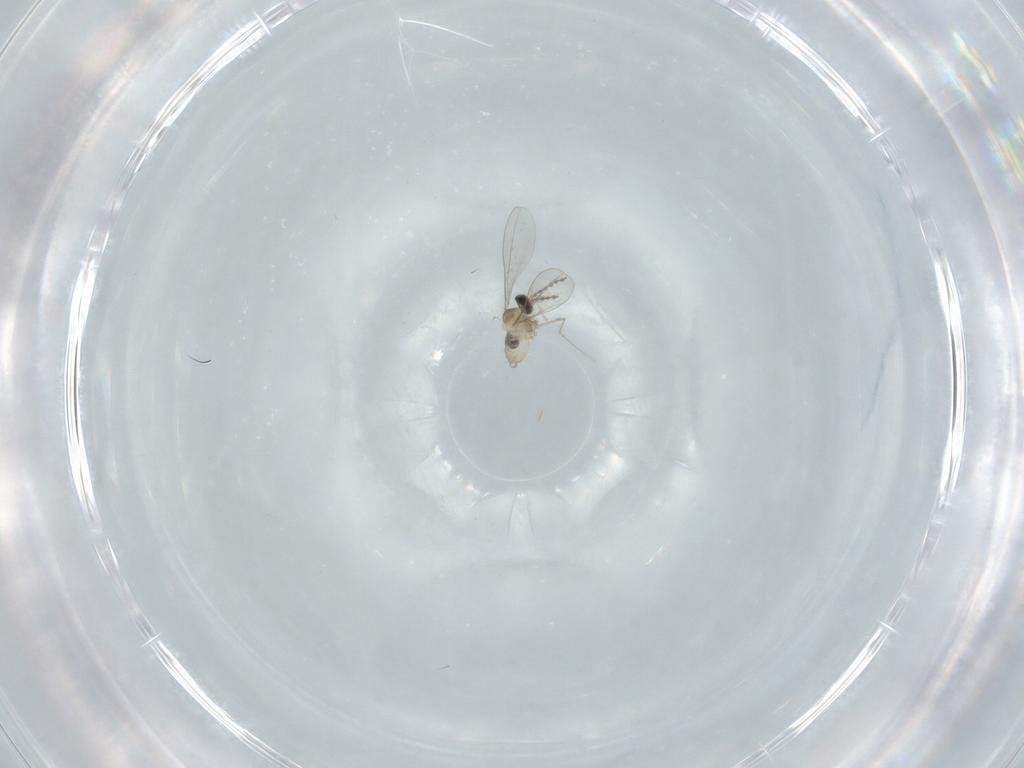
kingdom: Animalia
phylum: Arthropoda
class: Insecta
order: Diptera
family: Cecidomyiidae
